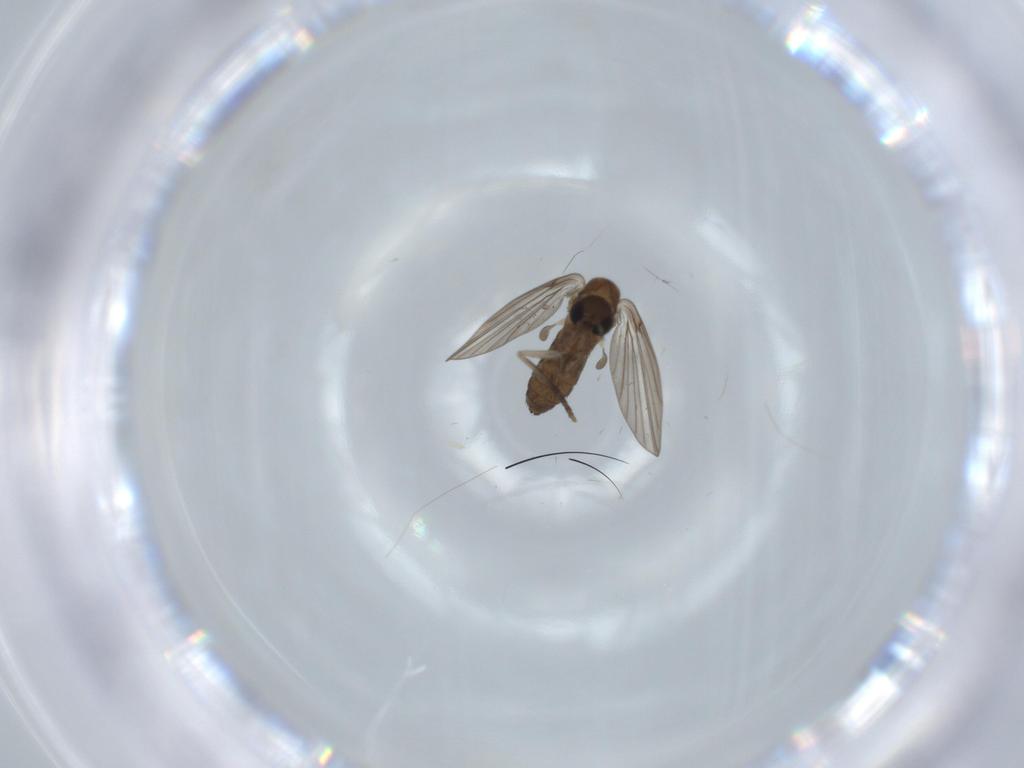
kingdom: Animalia
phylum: Arthropoda
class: Insecta
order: Diptera
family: Psychodidae
